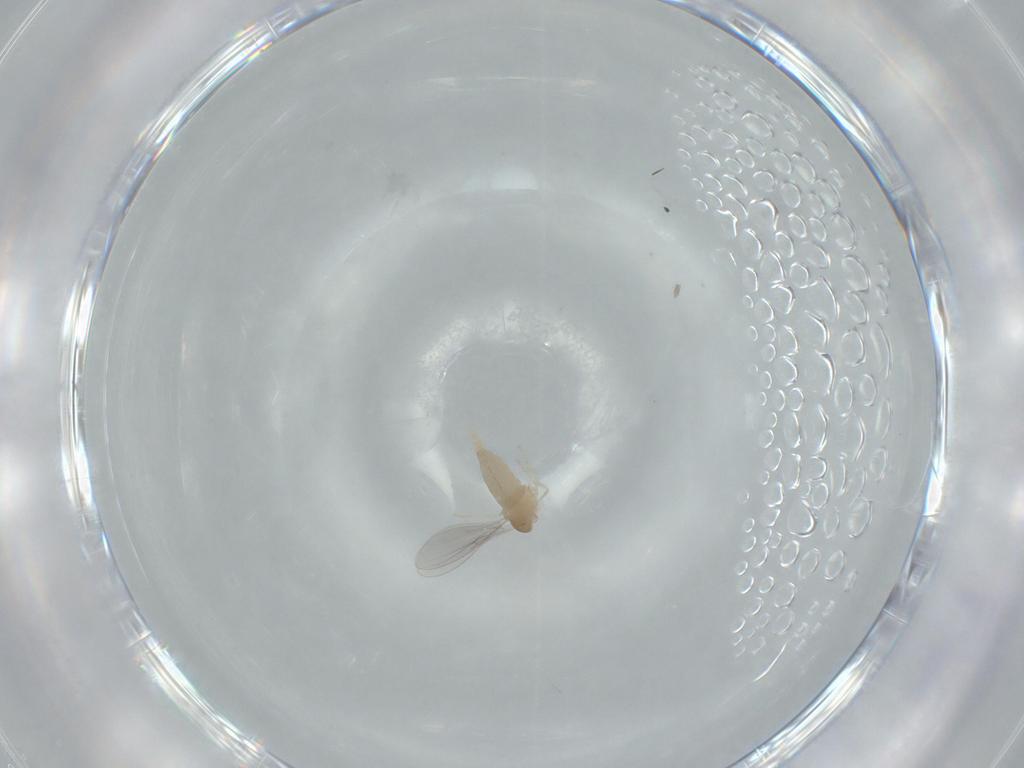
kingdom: Animalia
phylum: Arthropoda
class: Insecta
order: Diptera
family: Cecidomyiidae
